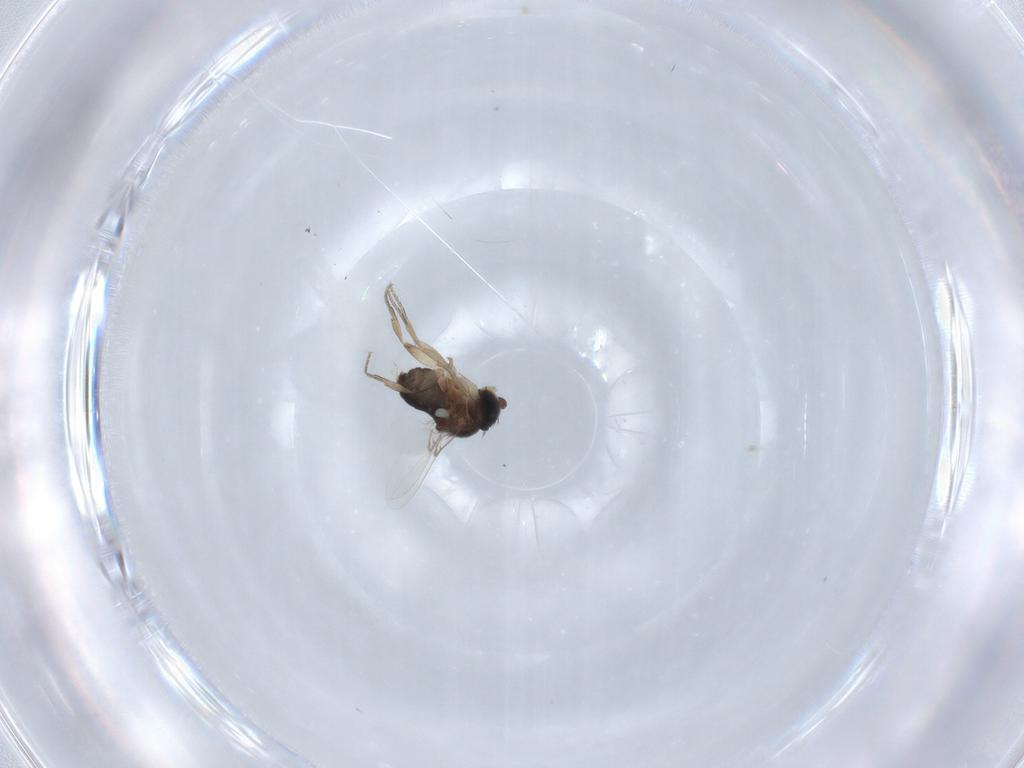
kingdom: Animalia
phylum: Arthropoda
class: Insecta
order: Diptera
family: Phoridae
